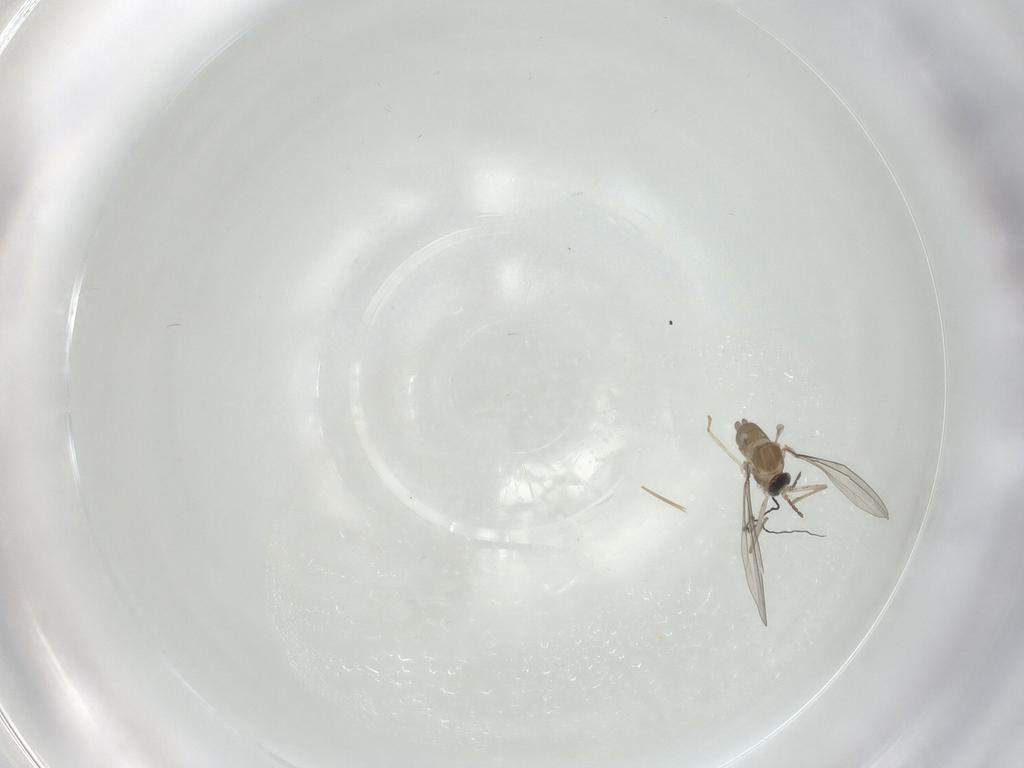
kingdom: Animalia
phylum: Arthropoda
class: Insecta
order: Diptera
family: Cecidomyiidae
